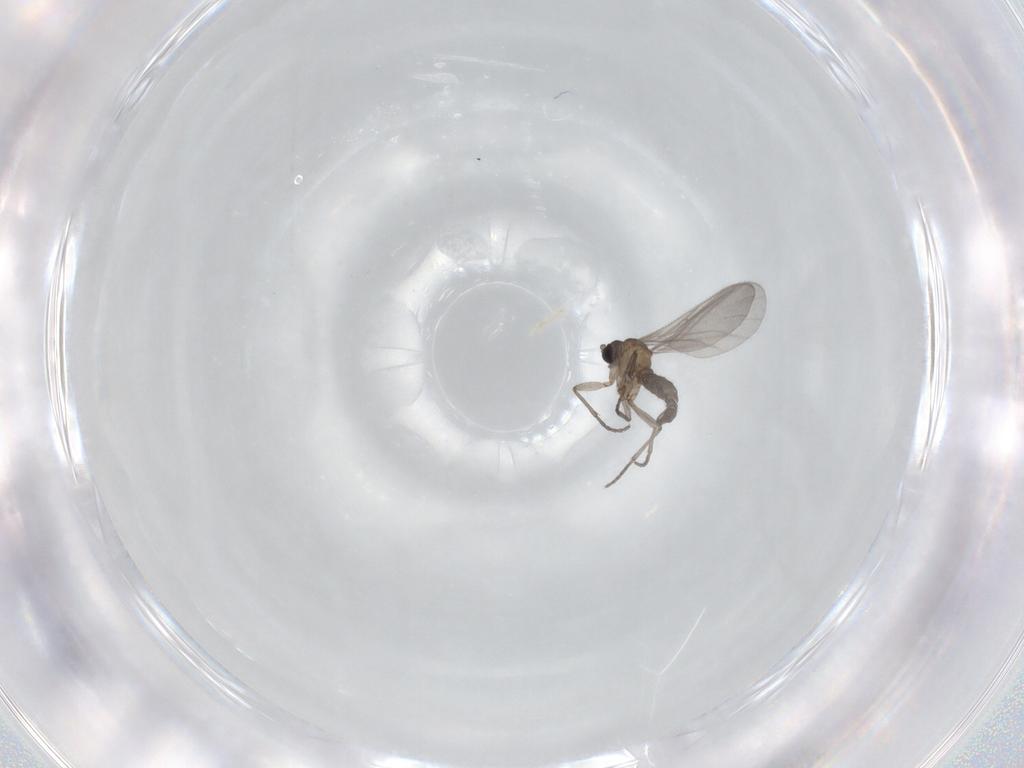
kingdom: Animalia
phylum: Arthropoda
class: Insecta
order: Diptera
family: Sciaridae
